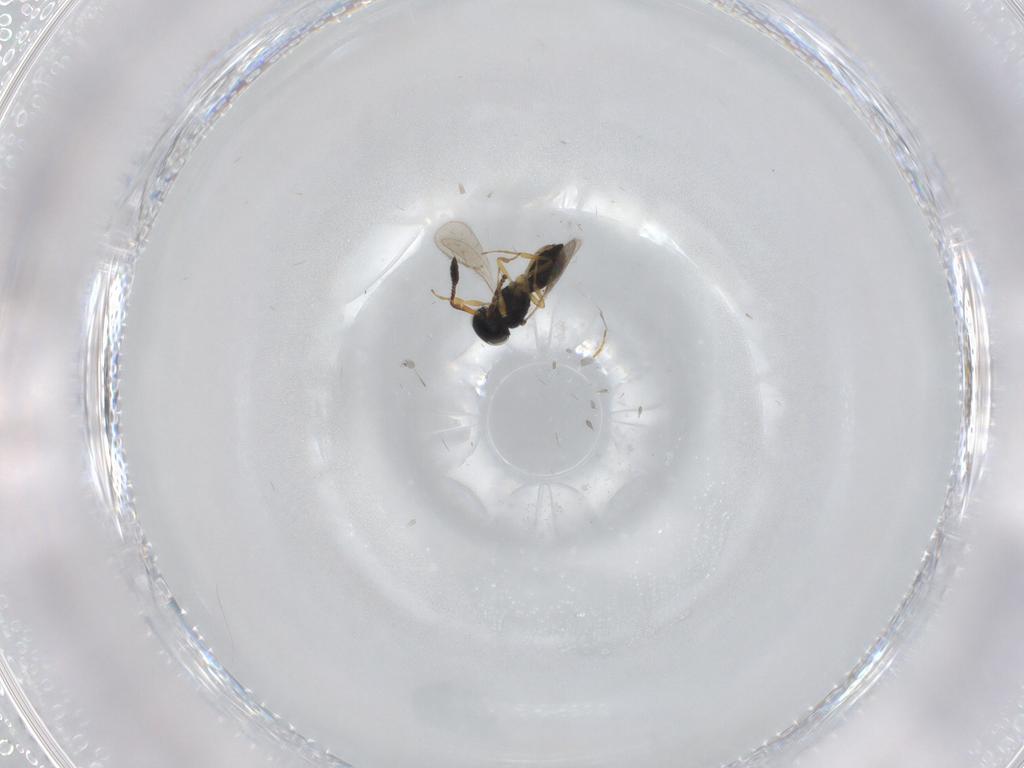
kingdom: Animalia
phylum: Arthropoda
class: Insecta
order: Hymenoptera
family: Scelionidae
